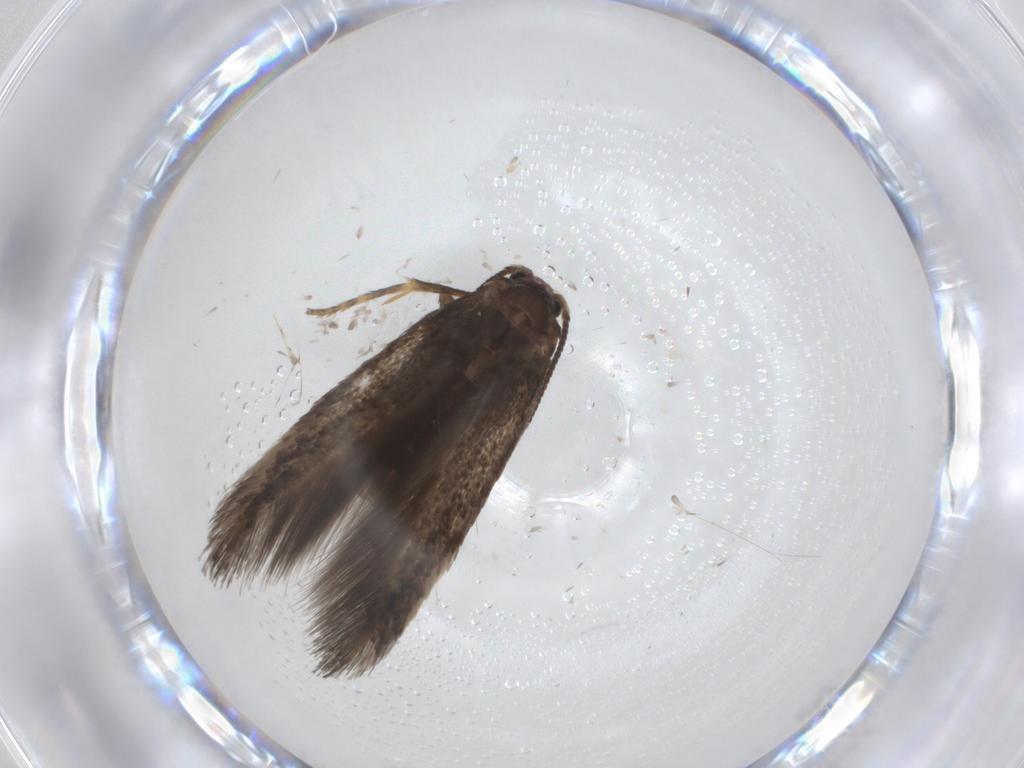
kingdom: Animalia
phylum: Arthropoda
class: Insecta
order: Lepidoptera
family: Nepticulidae
